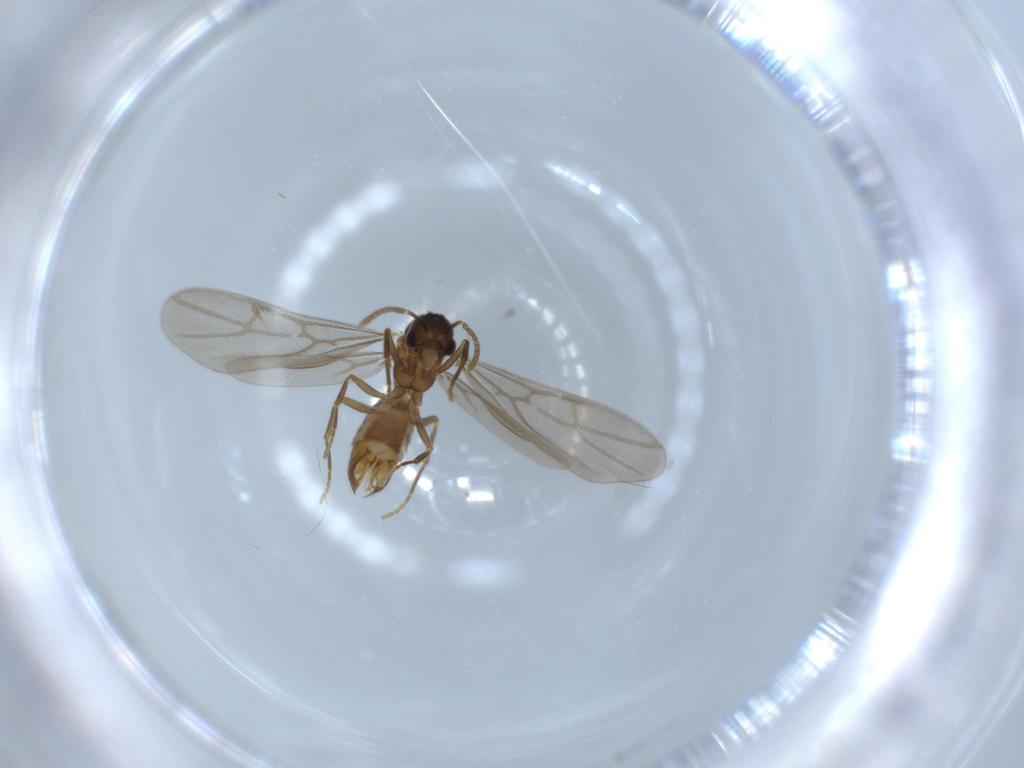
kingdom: Animalia
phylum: Arthropoda
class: Insecta
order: Hymenoptera
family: Formicidae
